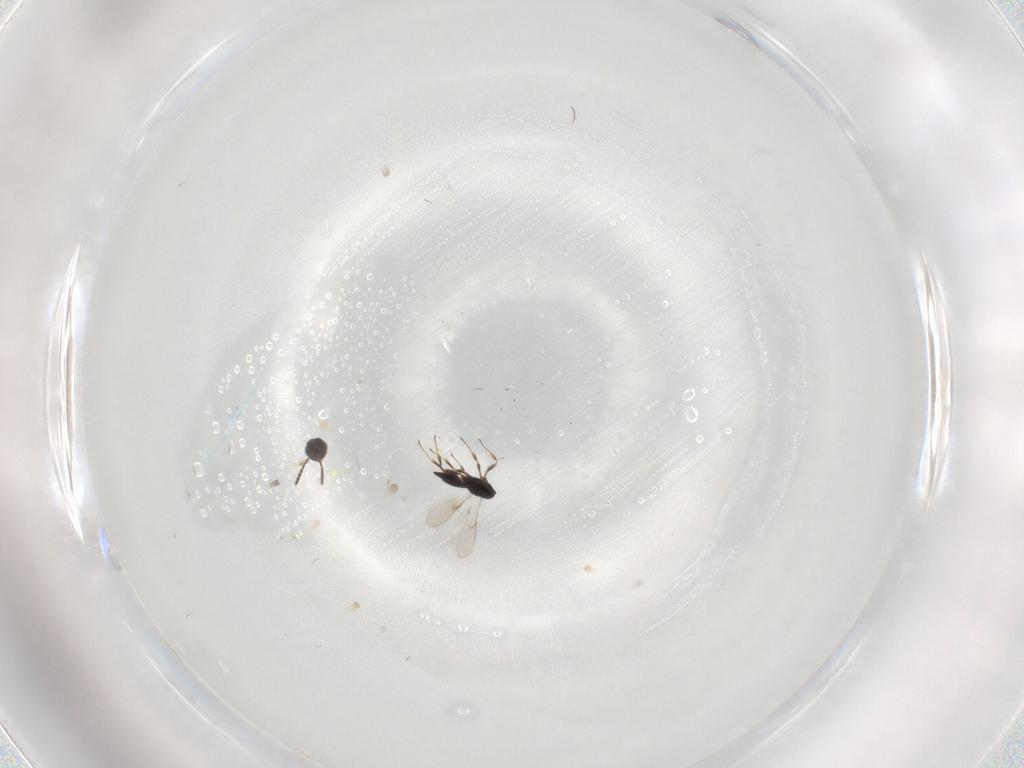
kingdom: Animalia
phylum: Arthropoda
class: Insecta
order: Hymenoptera
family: Scelionidae
